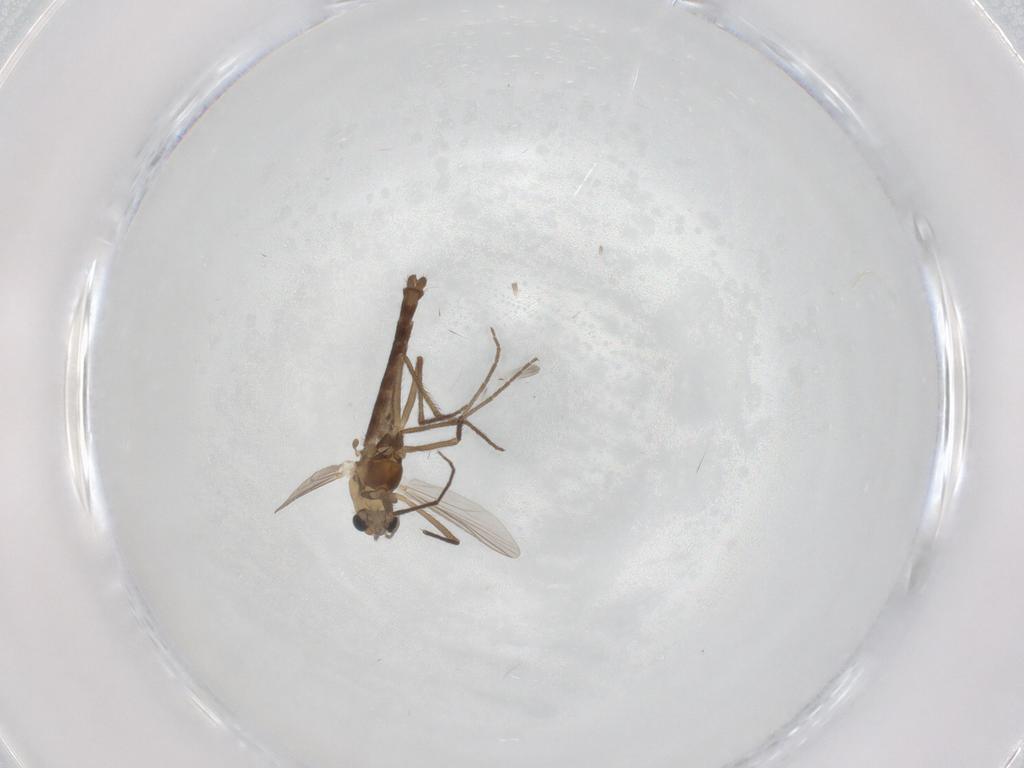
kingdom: Animalia
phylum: Arthropoda
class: Insecta
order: Diptera
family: Chironomidae
